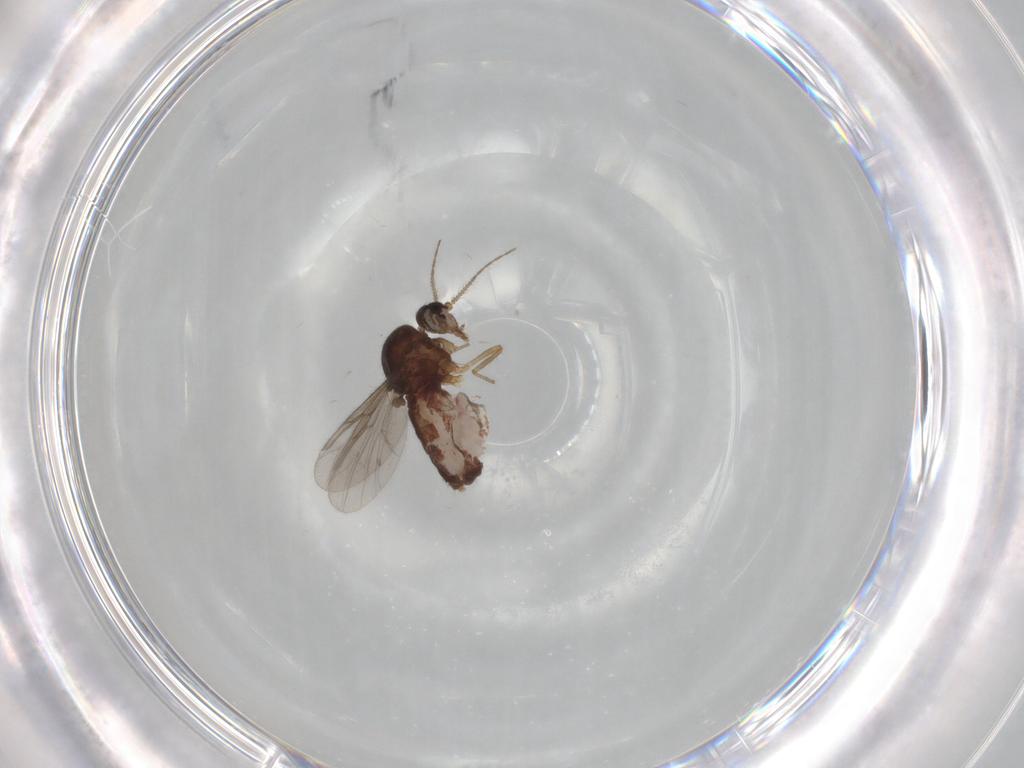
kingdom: Animalia
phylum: Arthropoda
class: Insecta
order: Diptera
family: Ceratopogonidae
